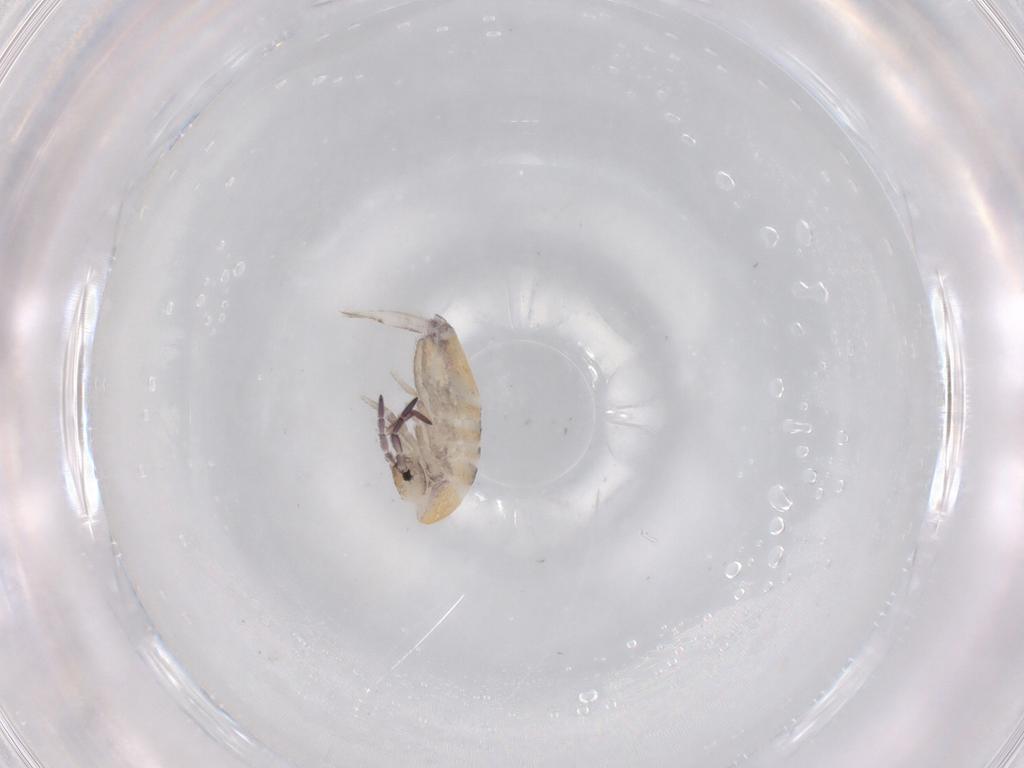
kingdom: Animalia
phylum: Arthropoda
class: Collembola
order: Entomobryomorpha
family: Entomobryidae
